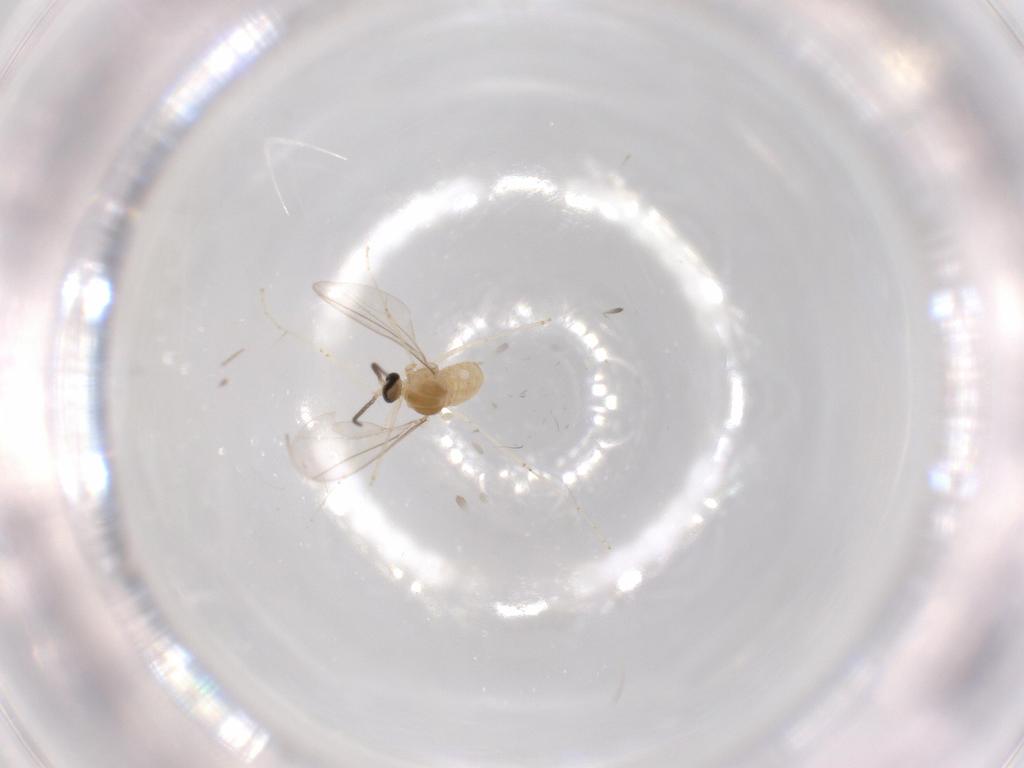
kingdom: Animalia
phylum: Arthropoda
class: Insecta
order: Diptera
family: Cecidomyiidae
